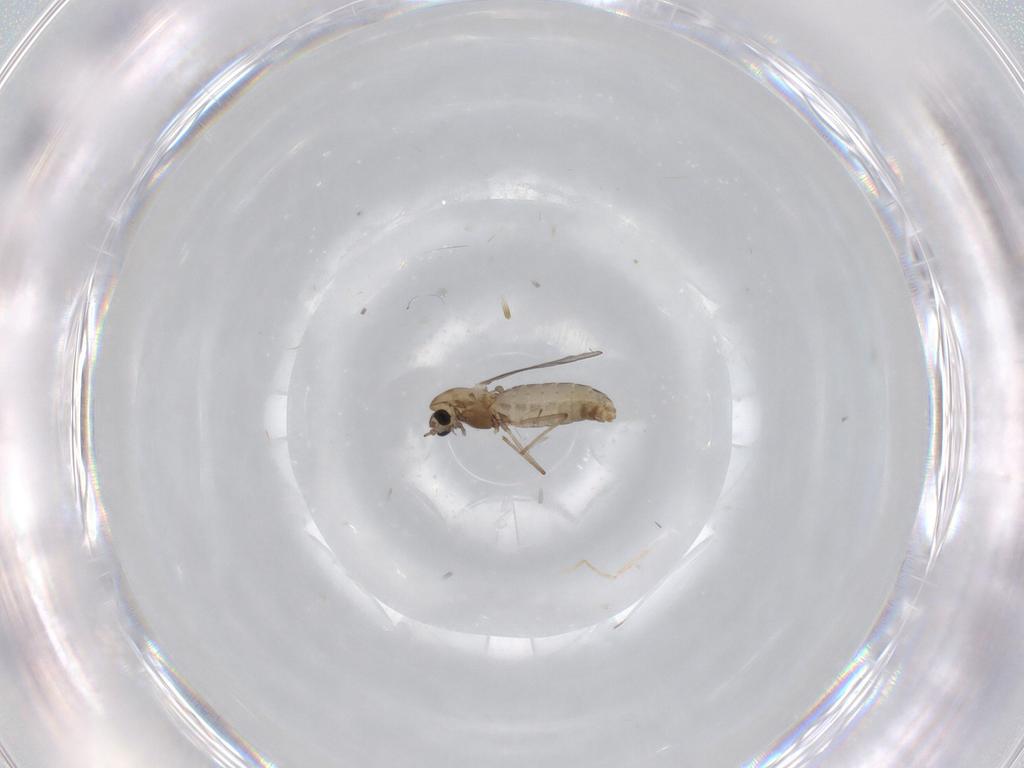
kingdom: Animalia
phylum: Arthropoda
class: Insecta
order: Diptera
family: Chironomidae
